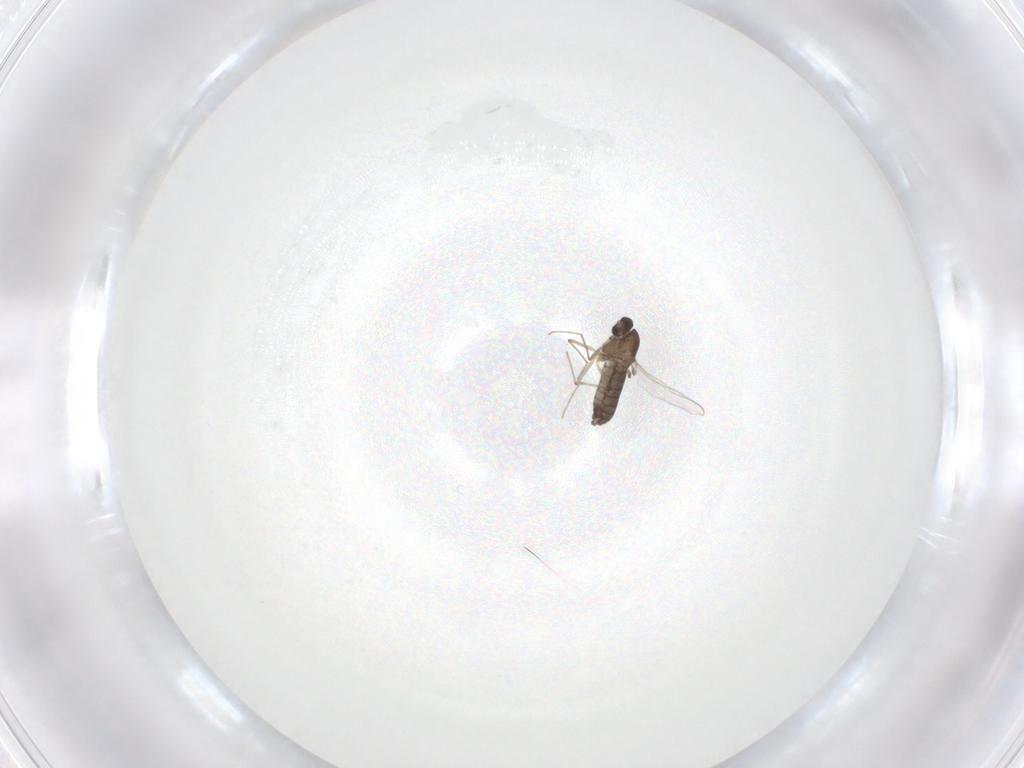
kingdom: Animalia
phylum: Arthropoda
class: Insecta
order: Diptera
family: Chironomidae
